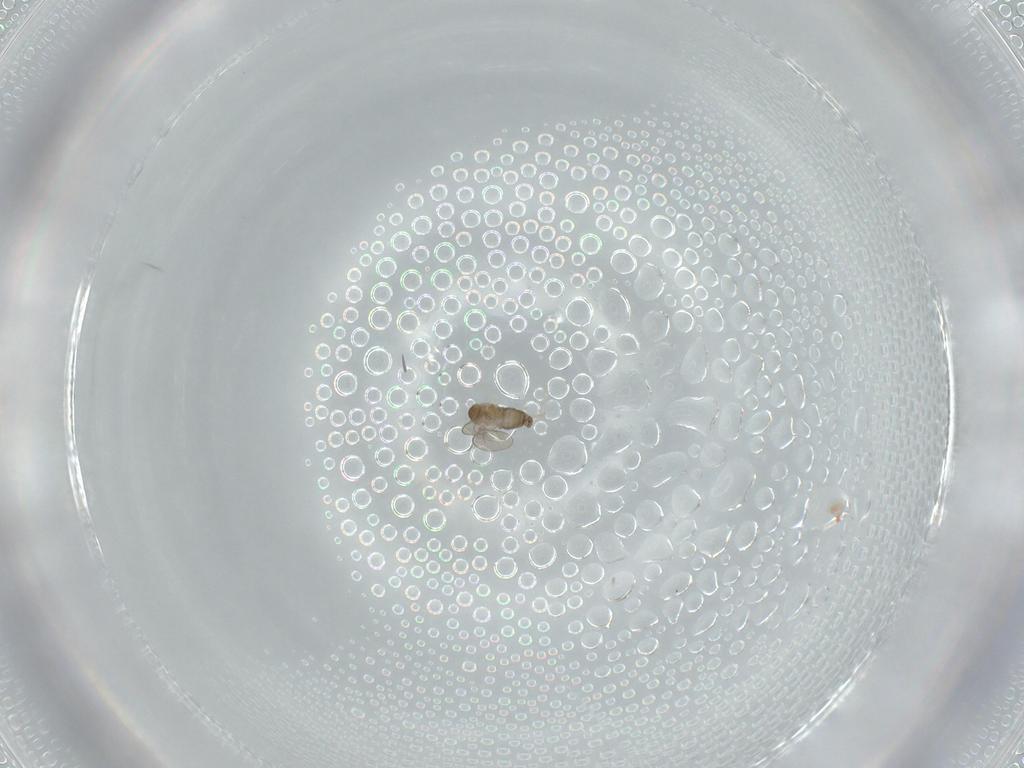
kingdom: Animalia
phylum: Arthropoda
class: Insecta
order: Diptera
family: Cecidomyiidae
